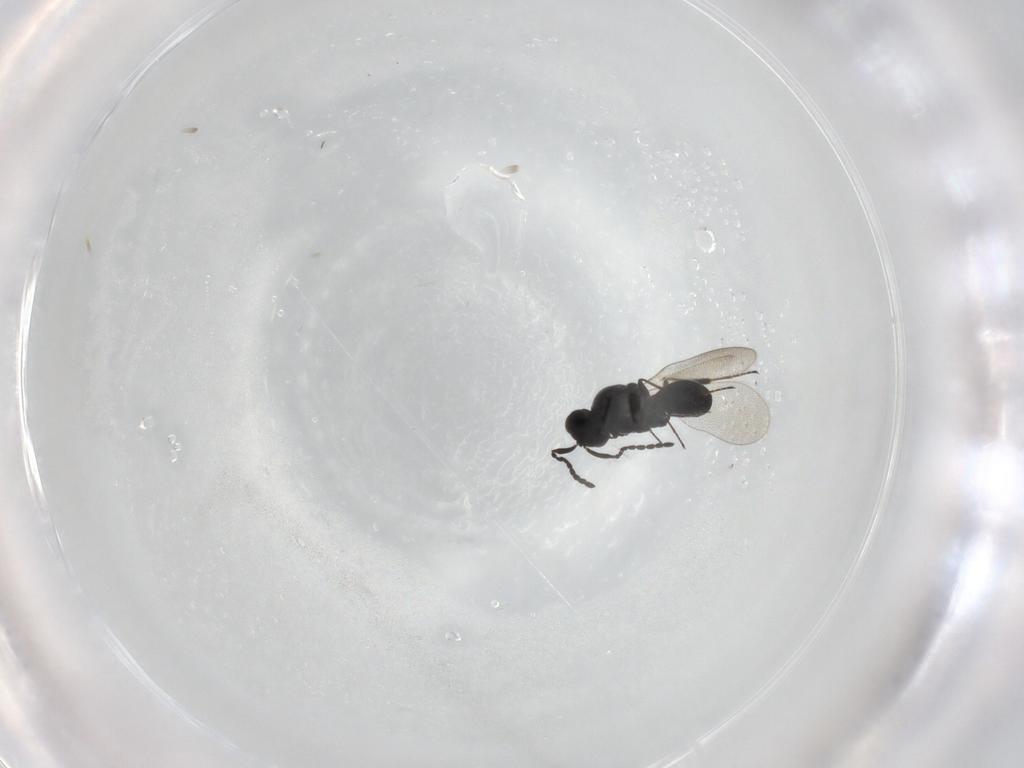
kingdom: Animalia
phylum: Arthropoda
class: Insecta
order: Hymenoptera
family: Platygastridae
